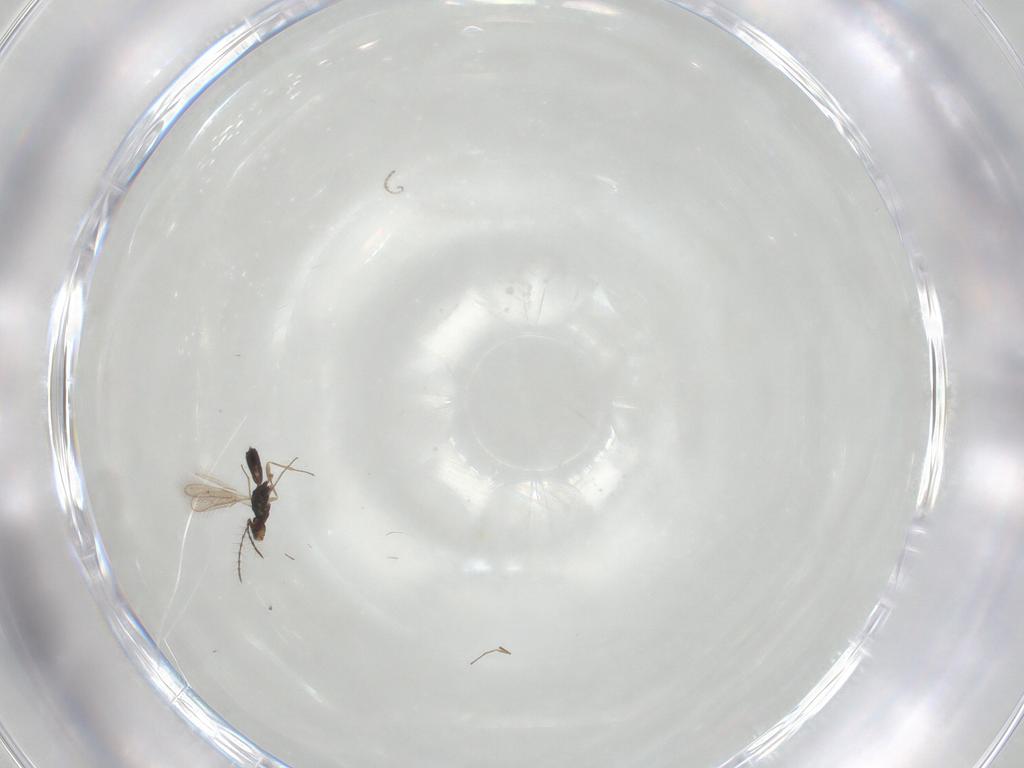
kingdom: Animalia
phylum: Arthropoda
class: Insecta
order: Hymenoptera
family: Pteromalidae
